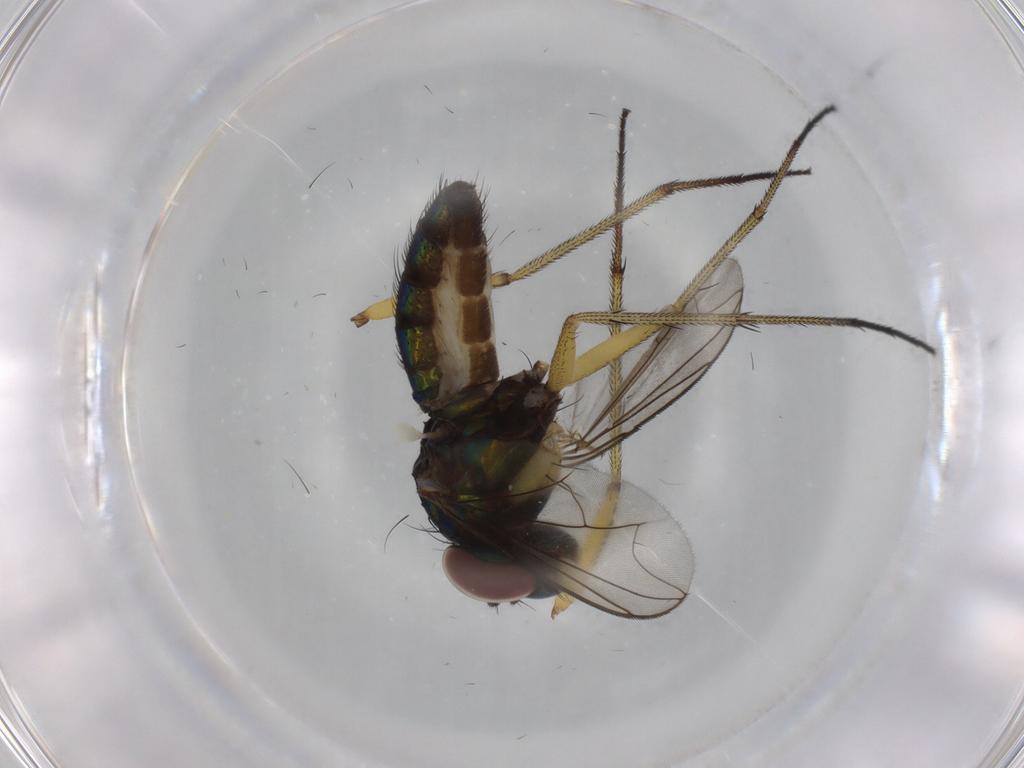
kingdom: Animalia
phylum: Arthropoda
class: Insecta
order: Diptera
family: Dolichopodidae
